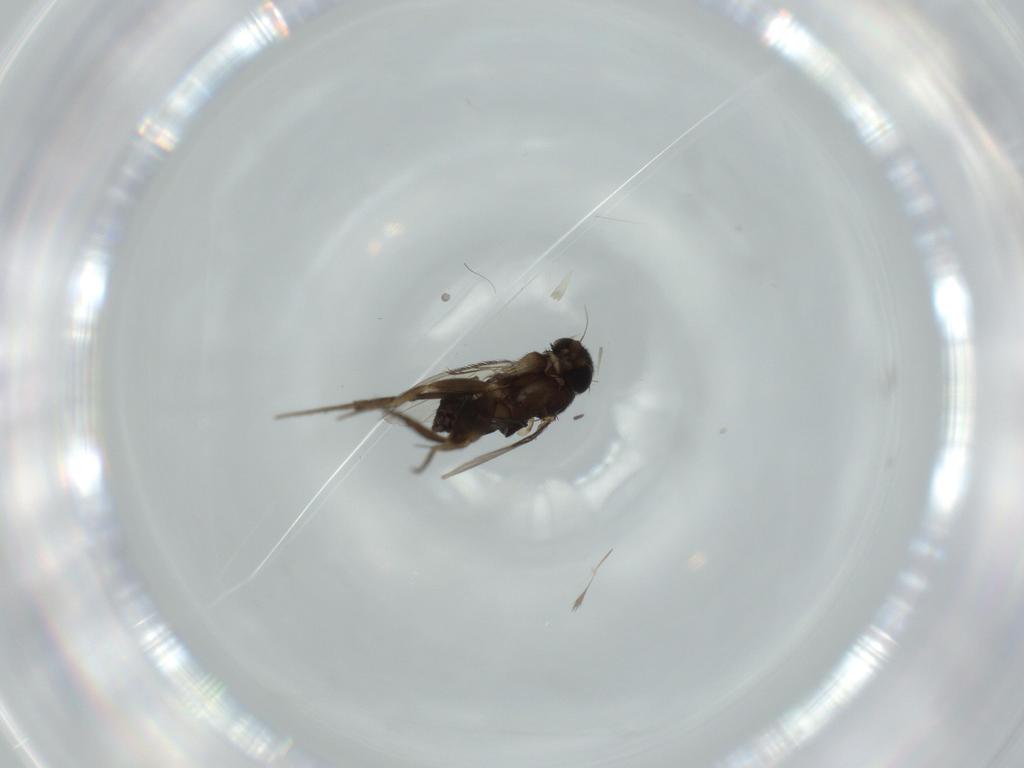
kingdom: Animalia
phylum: Arthropoda
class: Insecta
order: Diptera
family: Phoridae
